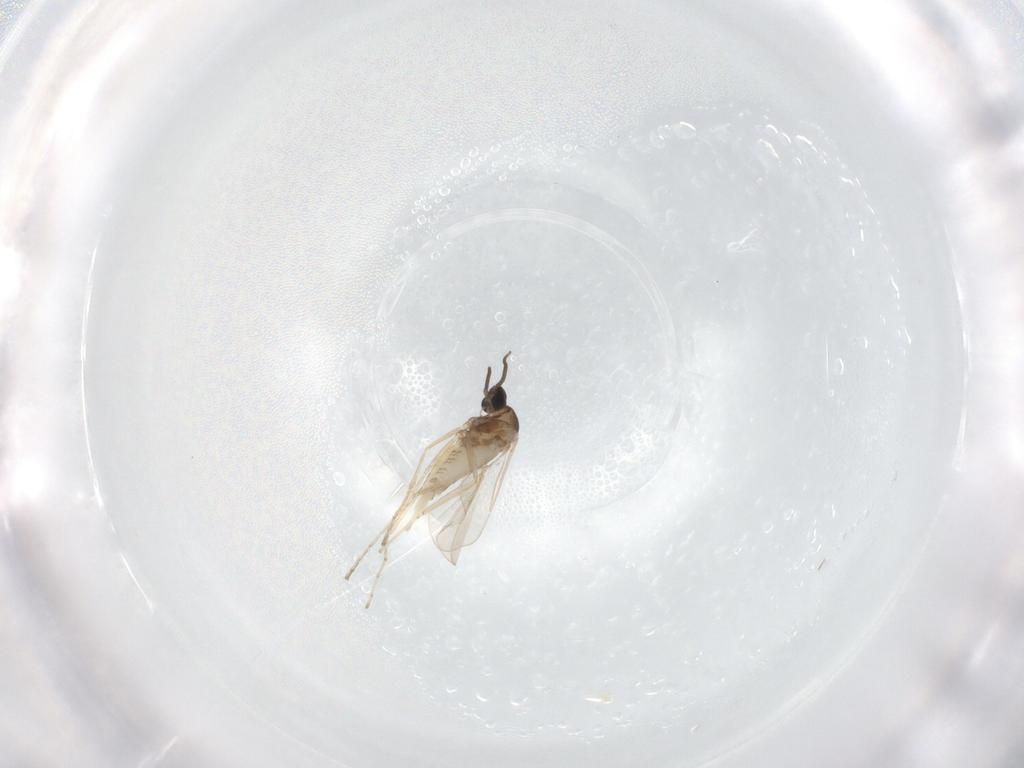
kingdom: Animalia
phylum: Arthropoda
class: Insecta
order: Diptera
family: Cecidomyiidae
